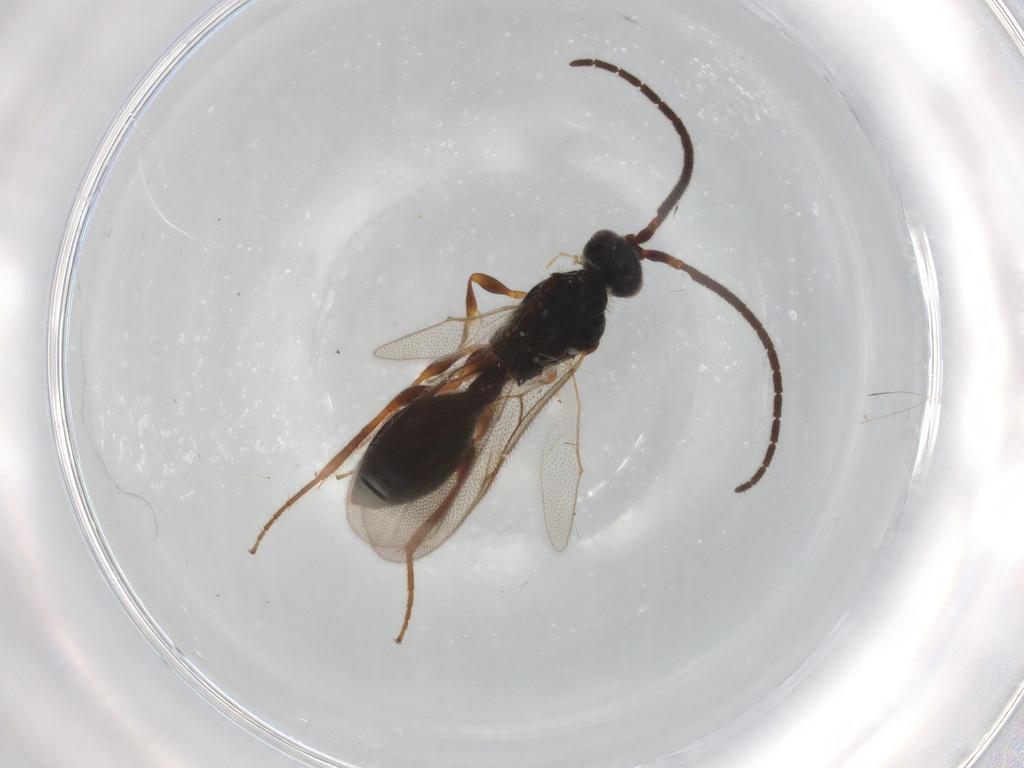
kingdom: Animalia
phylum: Arthropoda
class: Insecta
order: Hymenoptera
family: Diapriidae
